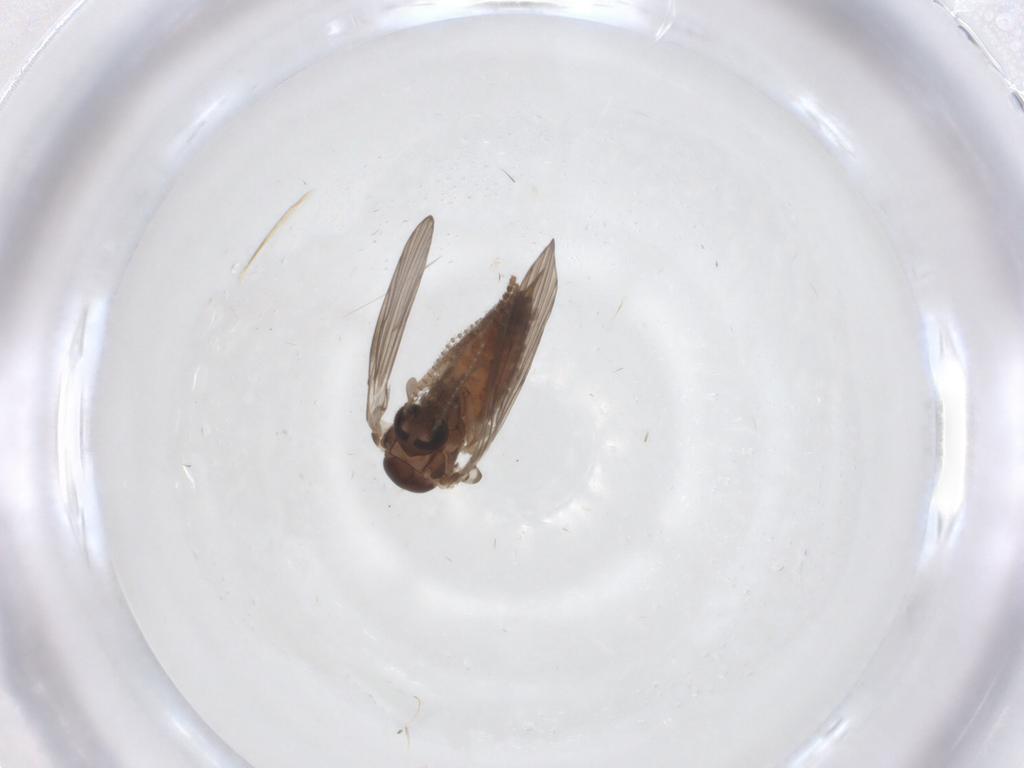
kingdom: Animalia
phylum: Arthropoda
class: Insecta
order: Diptera
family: Psychodidae
